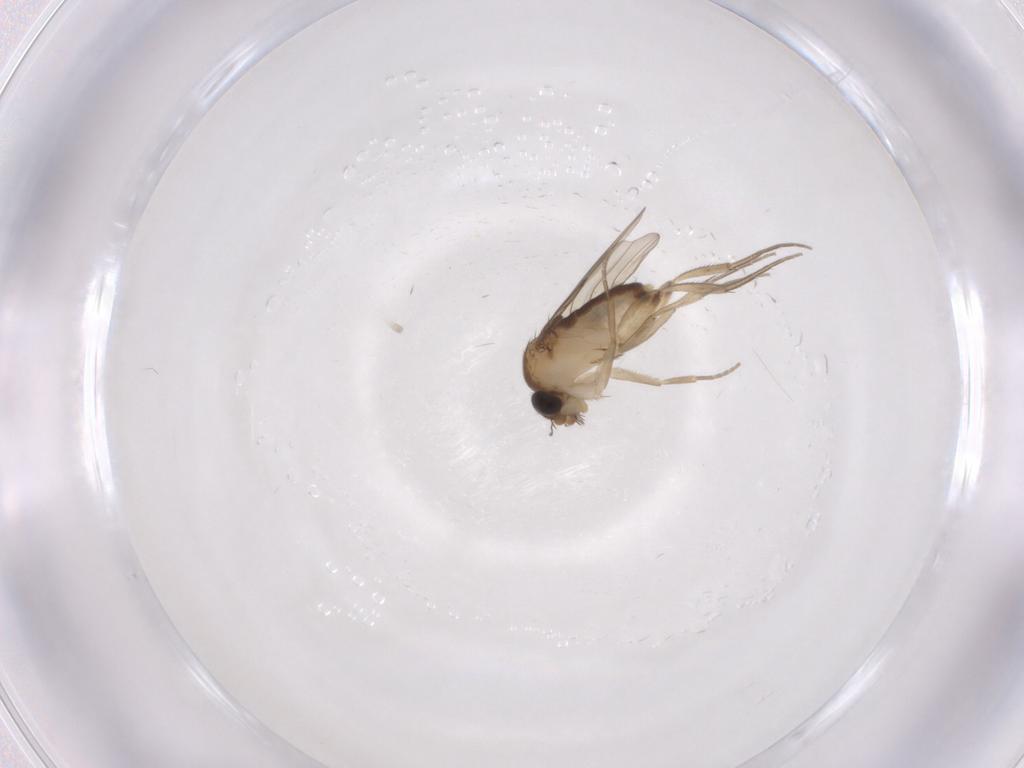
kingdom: Animalia
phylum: Arthropoda
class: Insecta
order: Diptera
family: Phoridae
